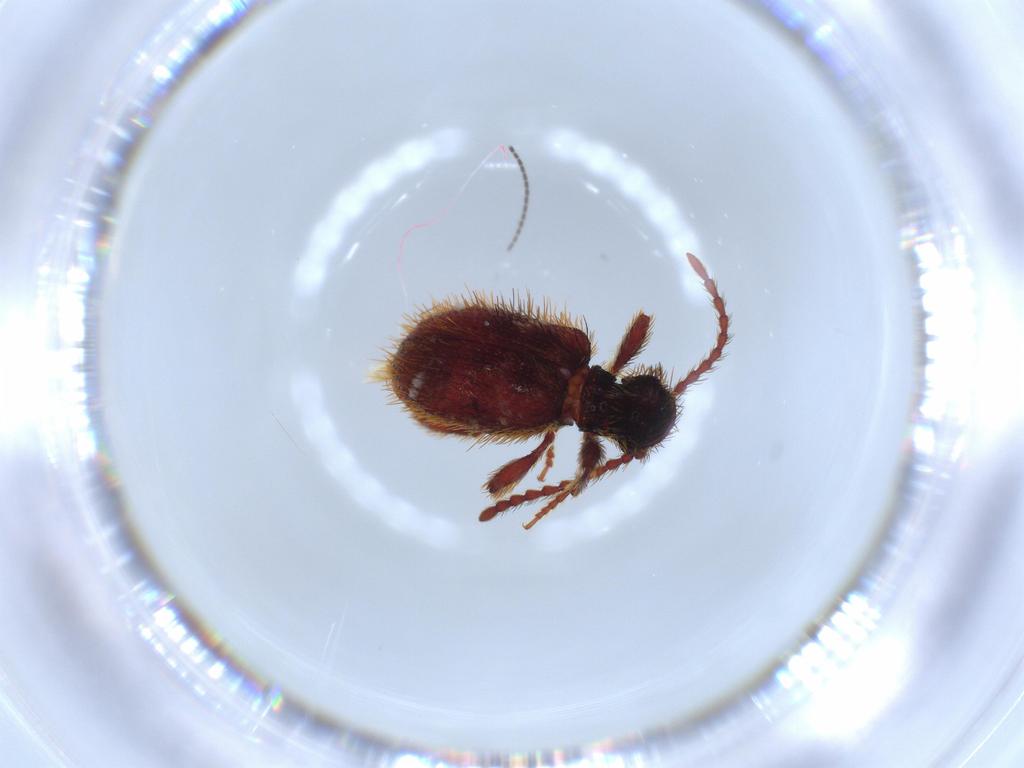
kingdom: Animalia
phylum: Arthropoda
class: Insecta
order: Coleoptera
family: Ptinidae
